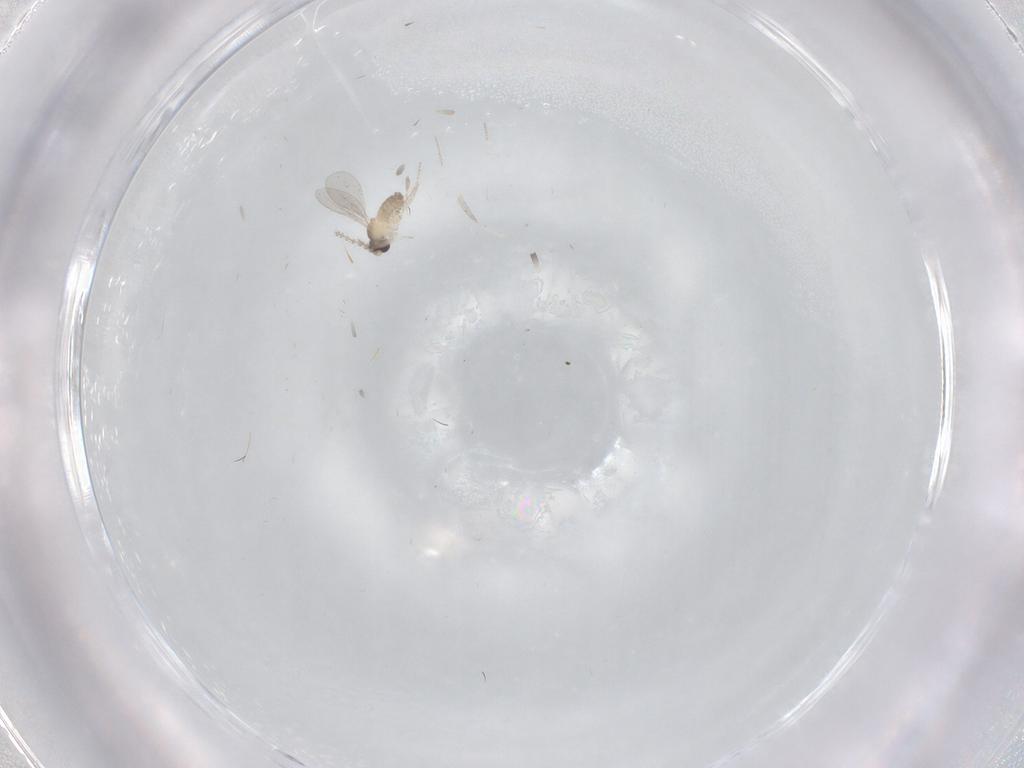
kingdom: Animalia
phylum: Arthropoda
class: Insecta
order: Diptera
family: Cecidomyiidae
